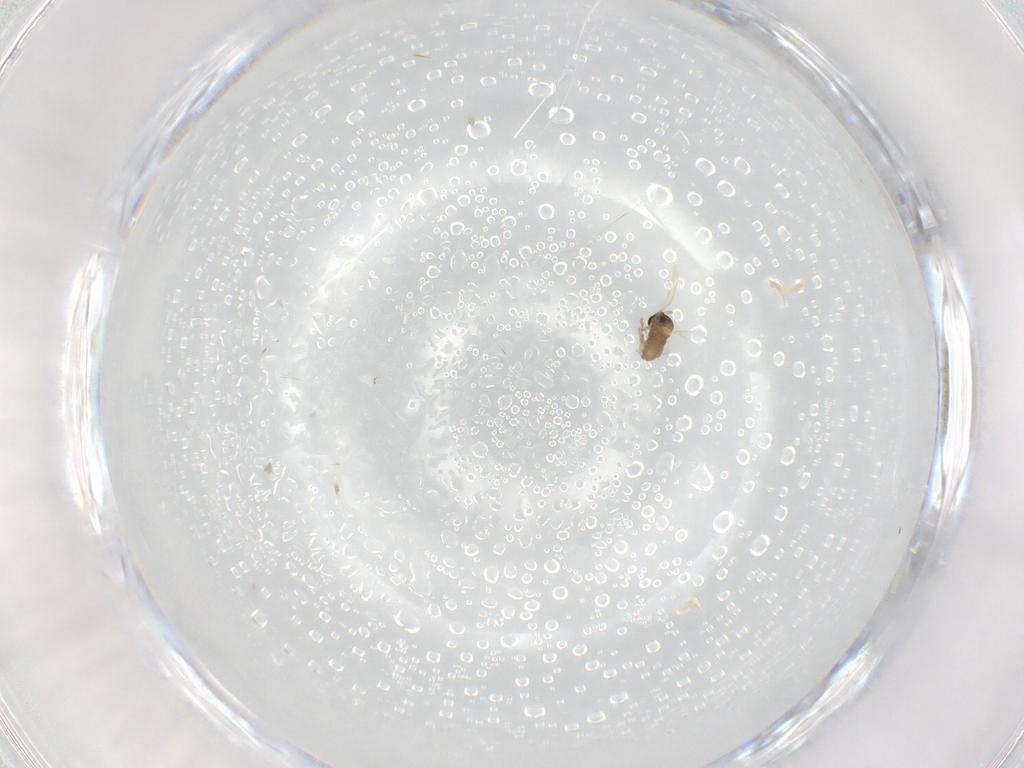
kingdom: Animalia
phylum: Arthropoda
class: Insecta
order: Diptera
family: Cecidomyiidae
